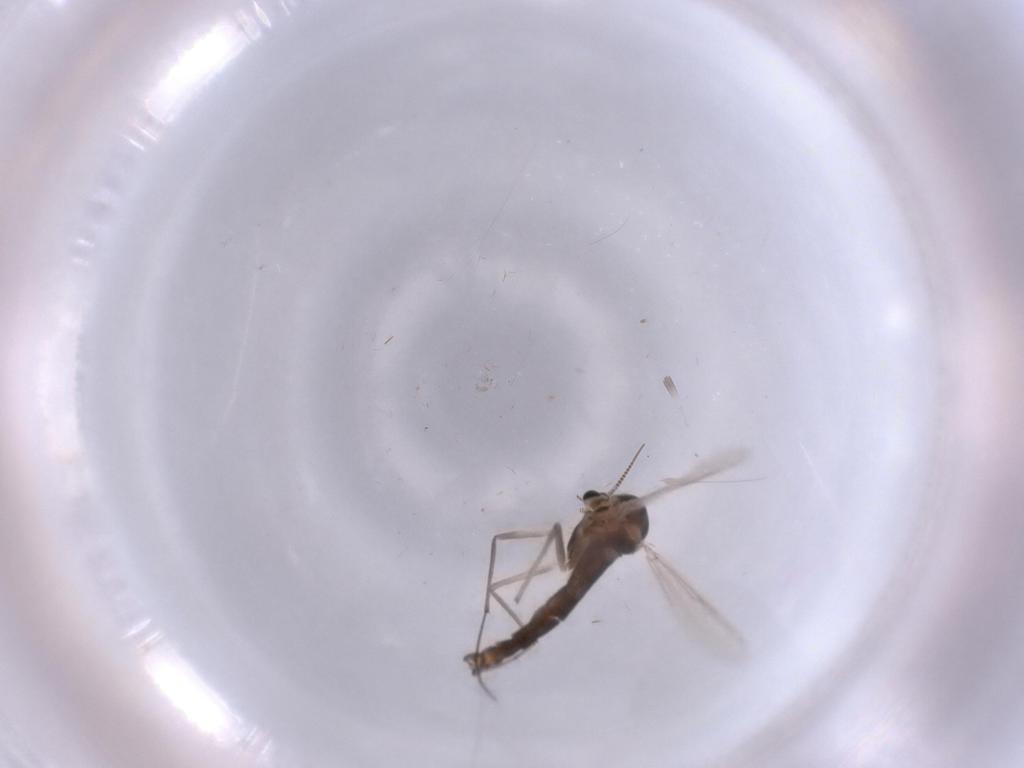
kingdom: Animalia
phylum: Arthropoda
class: Insecta
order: Diptera
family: Chironomidae
